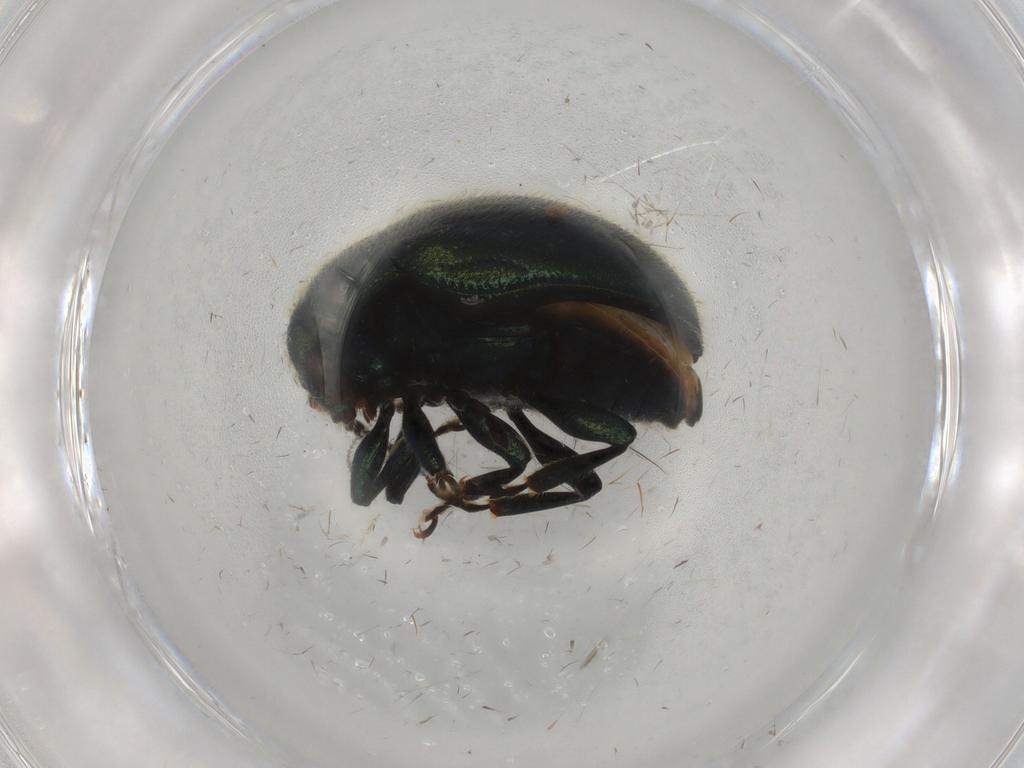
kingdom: Animalia
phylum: Arthropoda
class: Insecta
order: Coleoptera
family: Chrysomelidae
